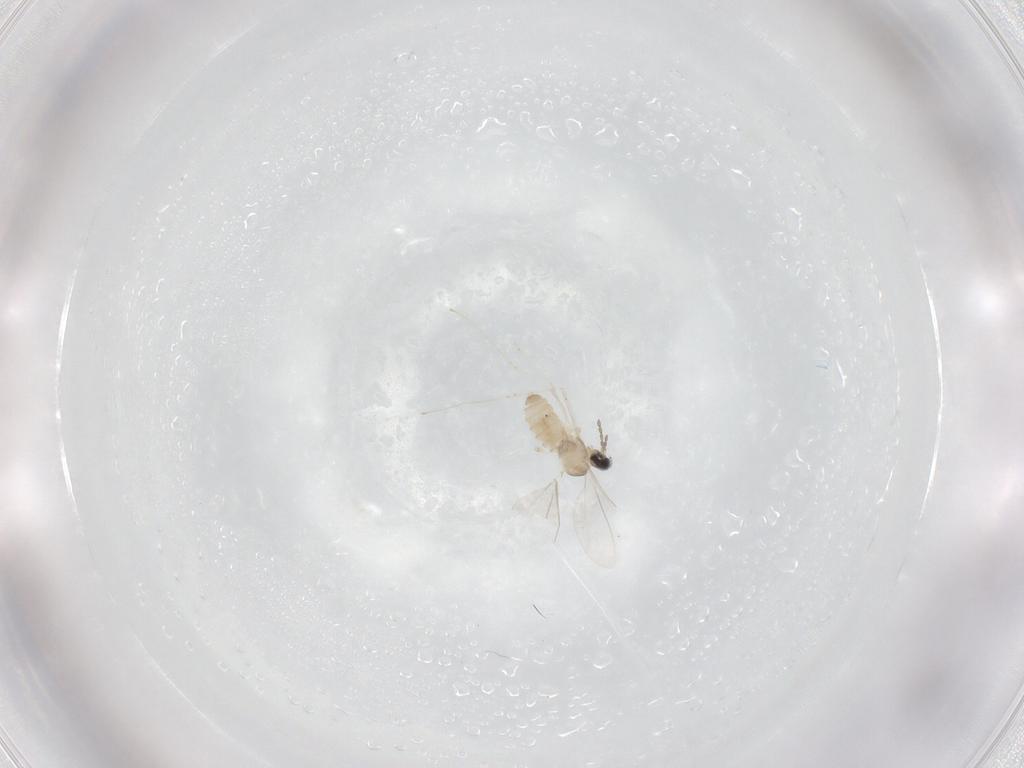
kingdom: Animalia
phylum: Arthropoda
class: Insecta
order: Diptera
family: Cecidomyiidae
